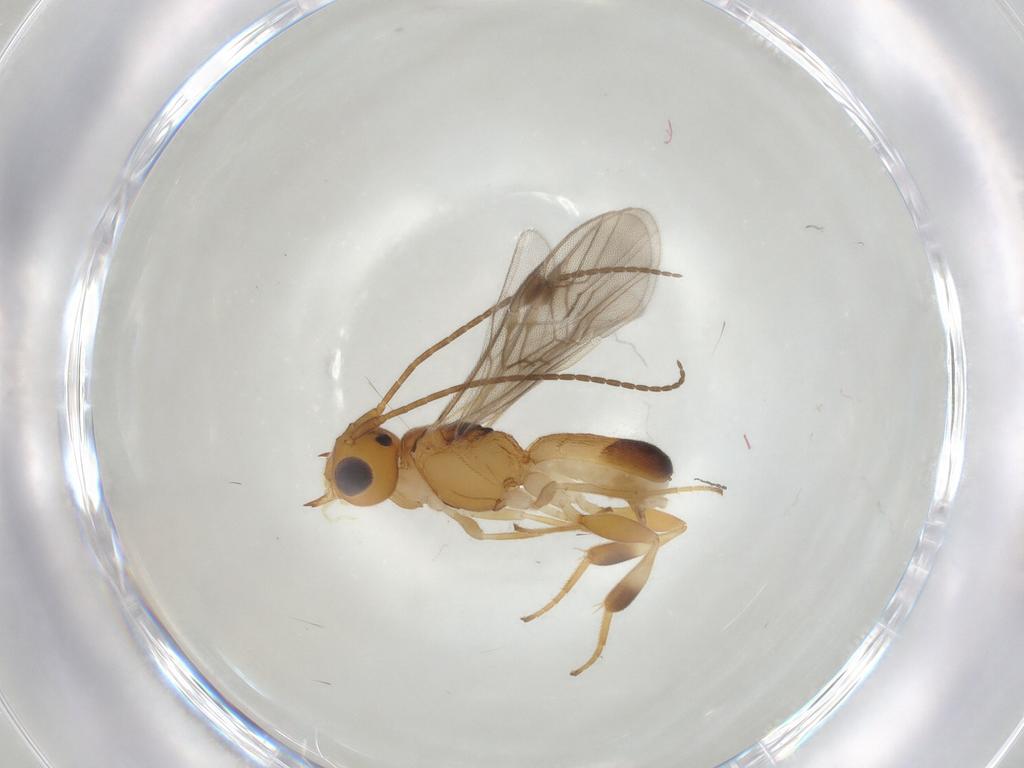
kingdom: Animalia
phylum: Arthropoda
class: Insecta
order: Hymenoptera
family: Braconidae
